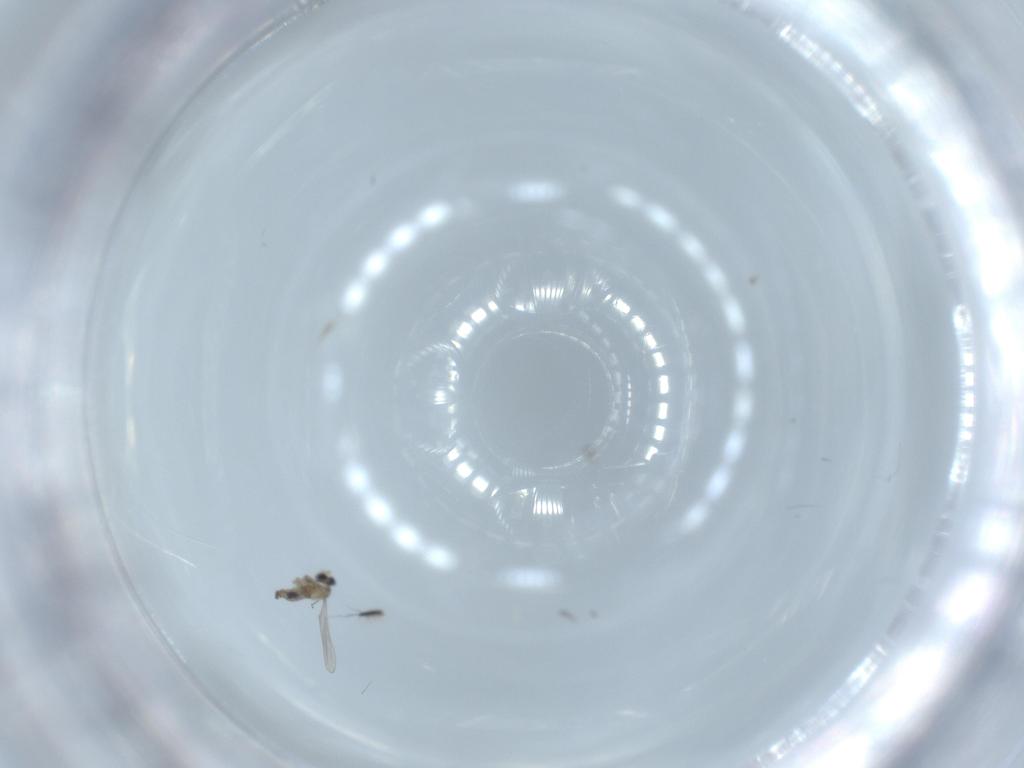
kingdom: Animalia
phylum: Arthropoda
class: Insecta
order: Diptera
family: Cecidomyiidae
